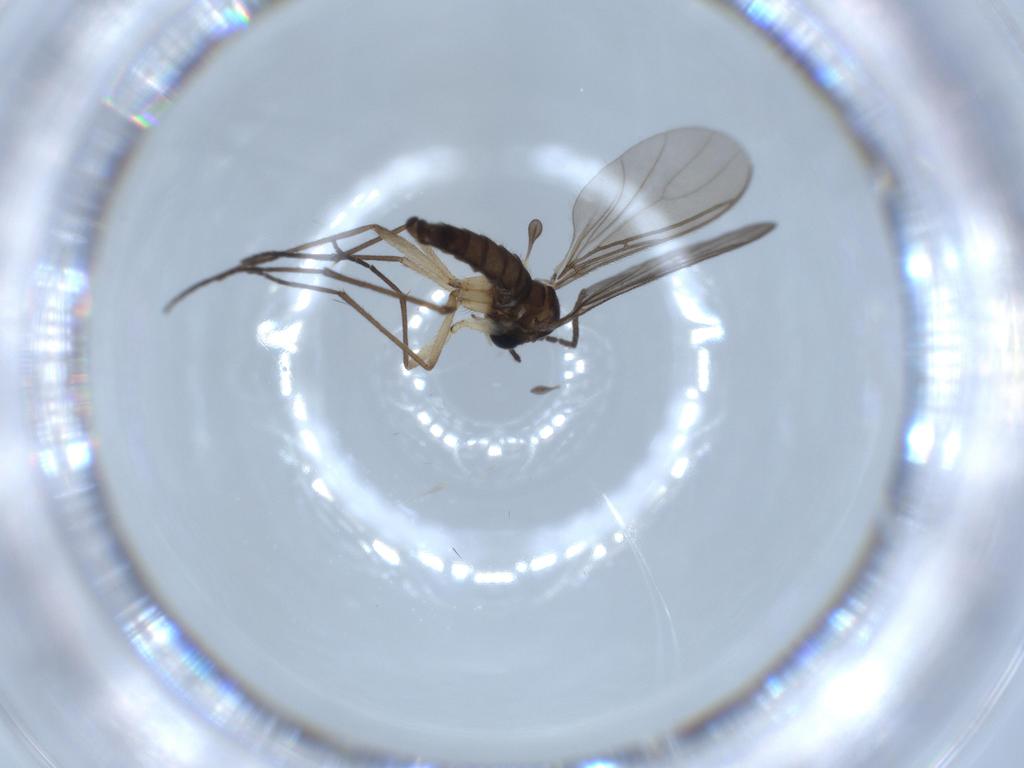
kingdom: Animalia
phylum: Arthropoda
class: Insecta
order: Diptera
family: Sciaridae
